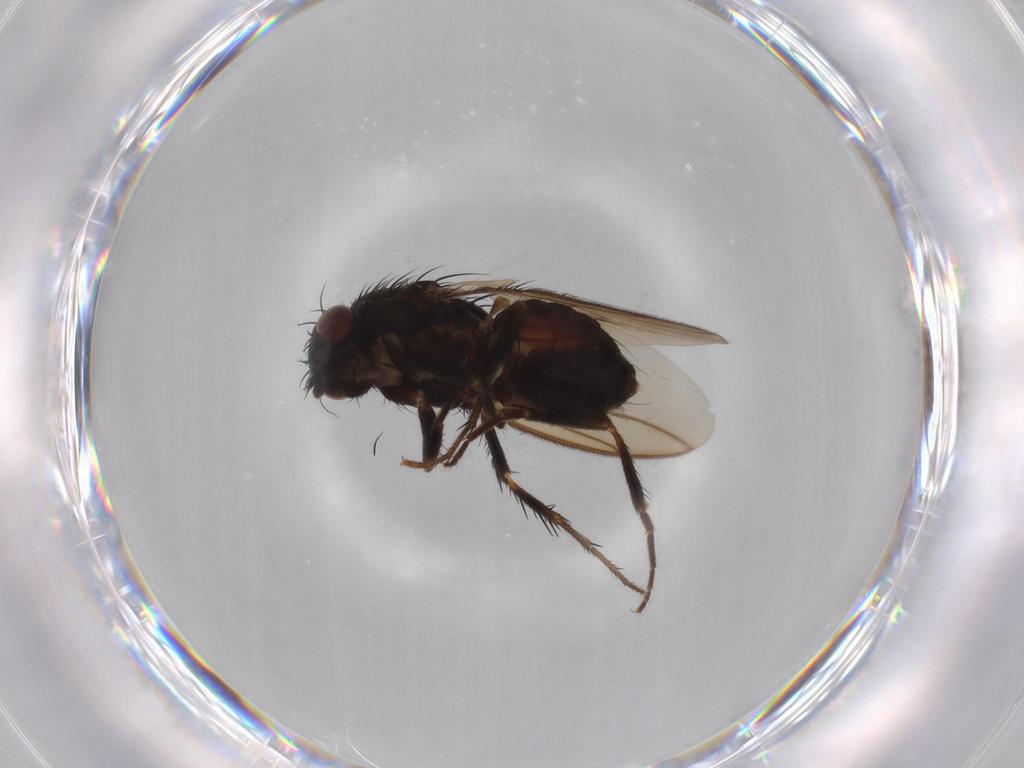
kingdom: Animalia
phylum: Arthropoda
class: Insecta
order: Diptera
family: Sphaeroceridae
